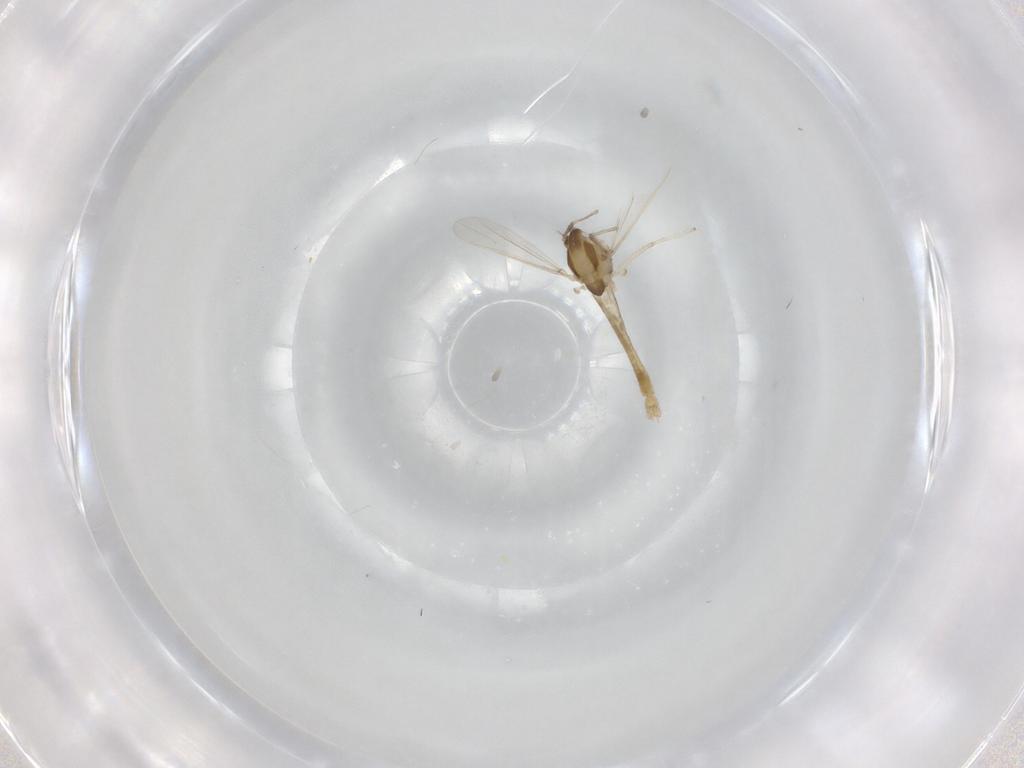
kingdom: Animalia
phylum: Arthropoda
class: Insecta
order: Diptera
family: Chironomidae
